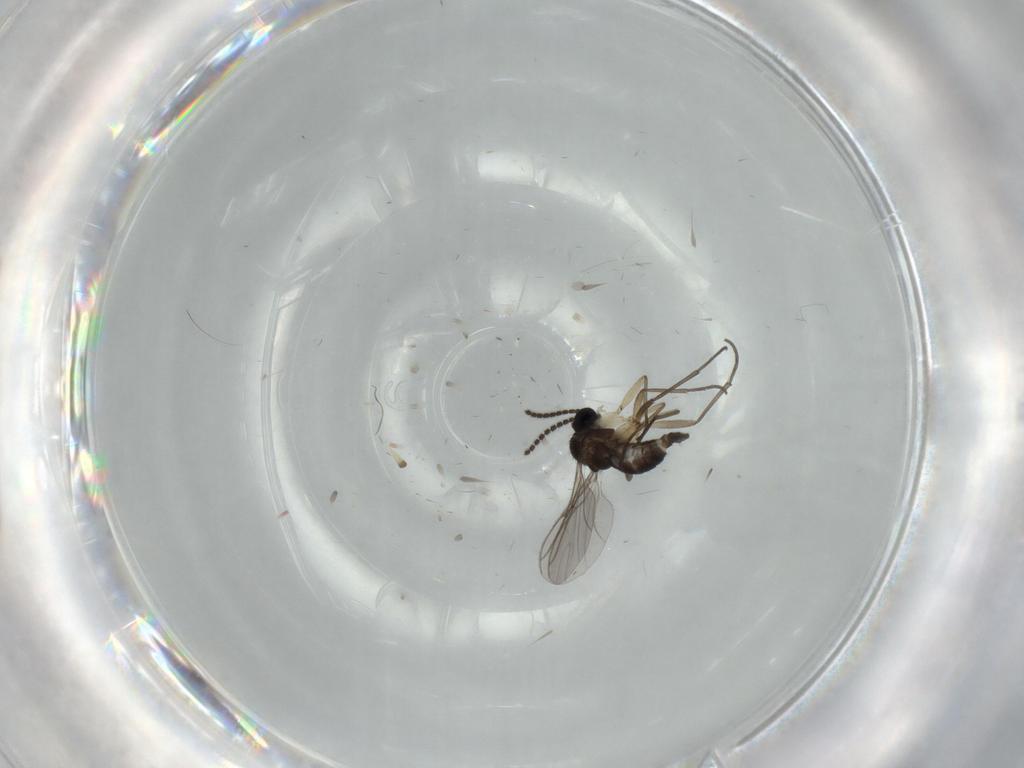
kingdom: Animalia
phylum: Arthropoda
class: Insecta
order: Diptera
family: Sciaridae
